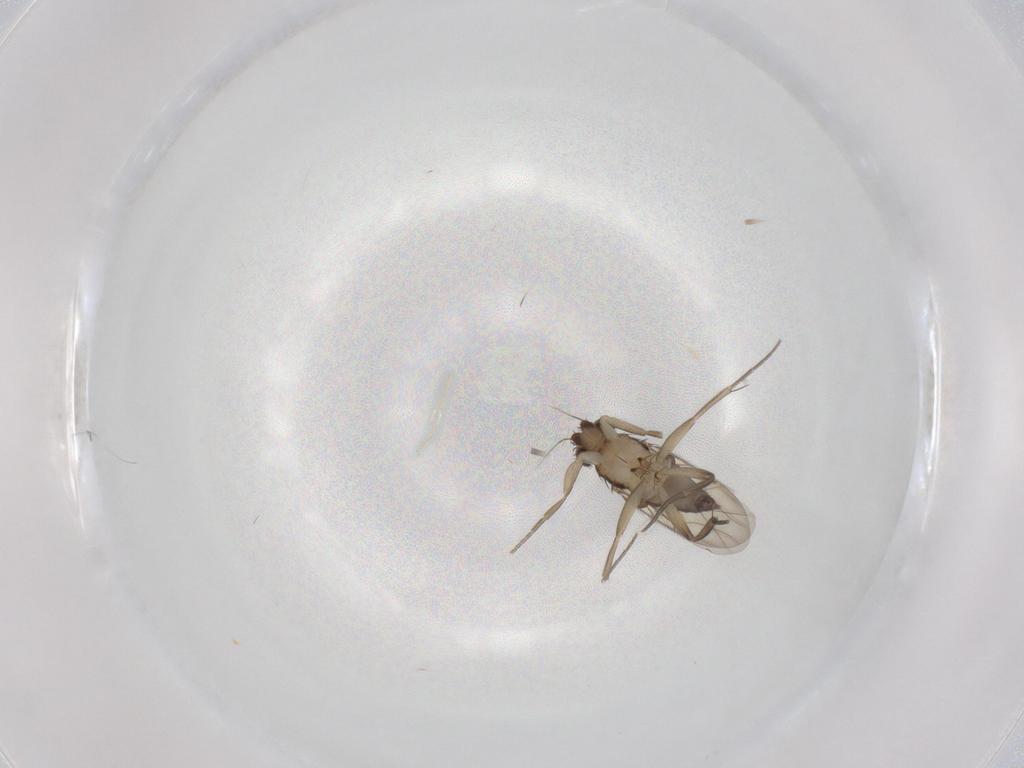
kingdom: Animalia
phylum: Arthropoda
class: Insecta
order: Diptera
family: Phoridae
